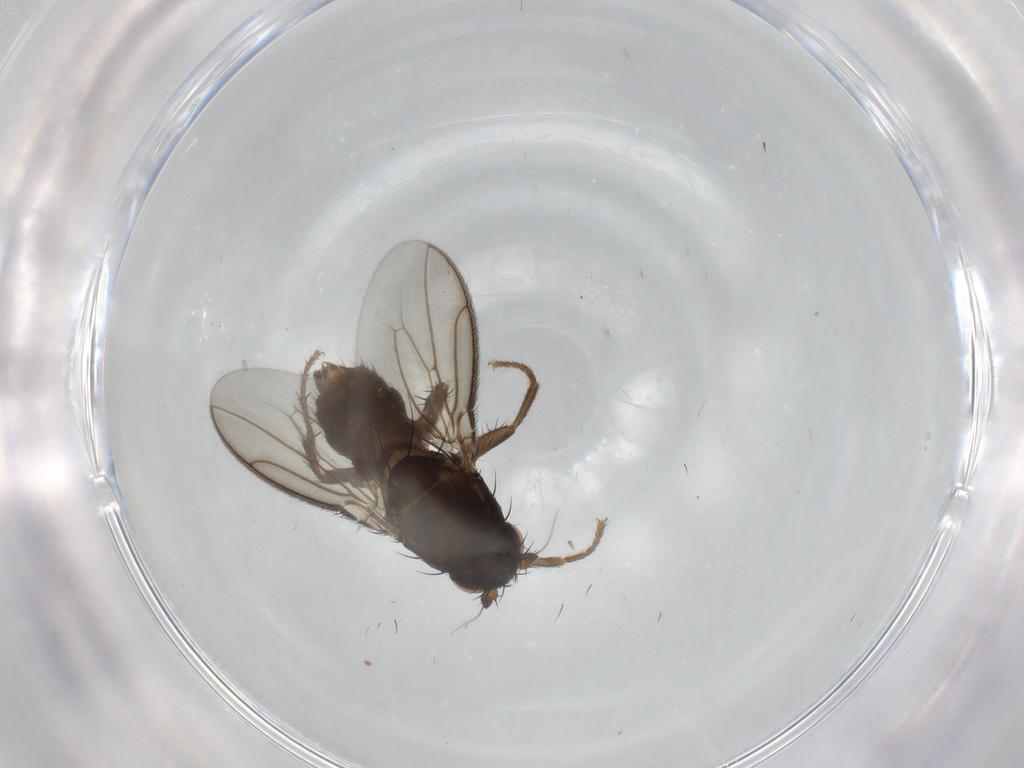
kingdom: Animalia
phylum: Arthropoda
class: Insecta
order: Diptera
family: Sphaeroceridae
